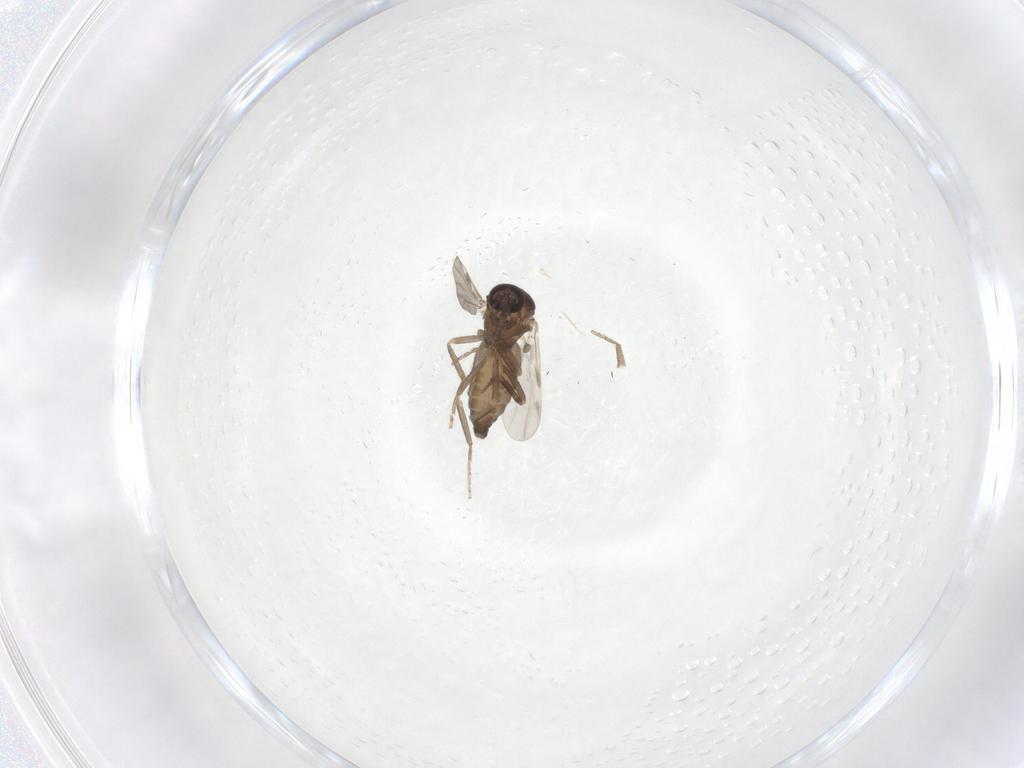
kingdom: Animalia
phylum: Arthropoda
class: Insecta
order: Diptera
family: Ceratopogonidae
